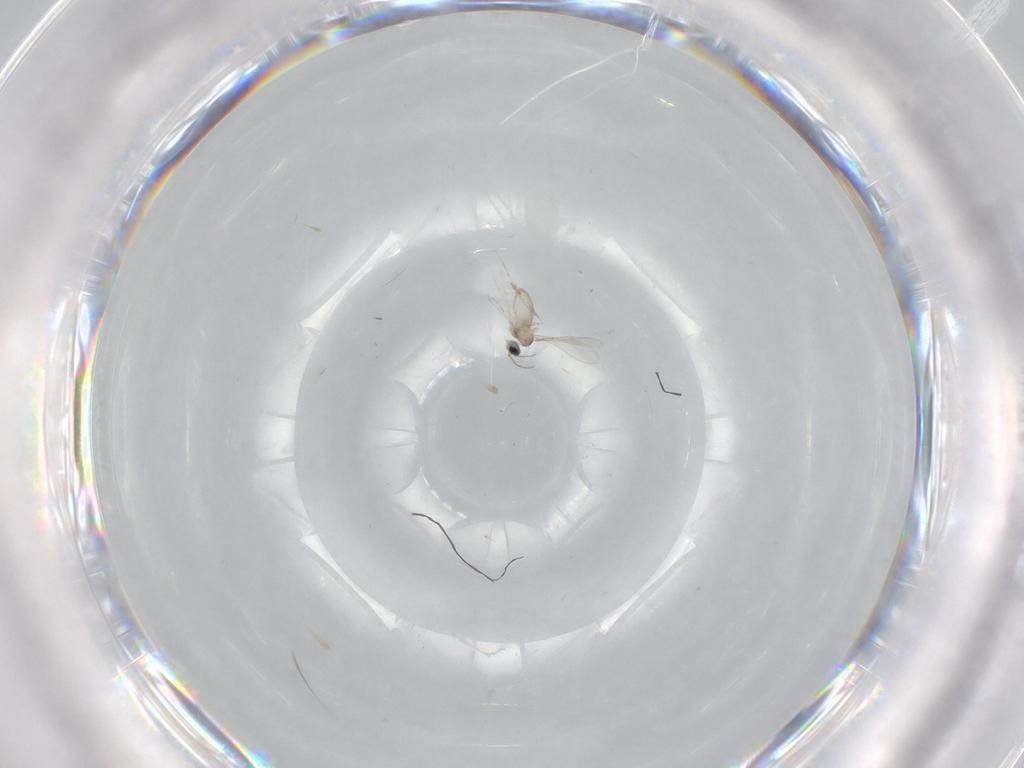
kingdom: Animalia
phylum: Arthropoda
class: Insecta
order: Diptera
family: Cecidomyiidae
